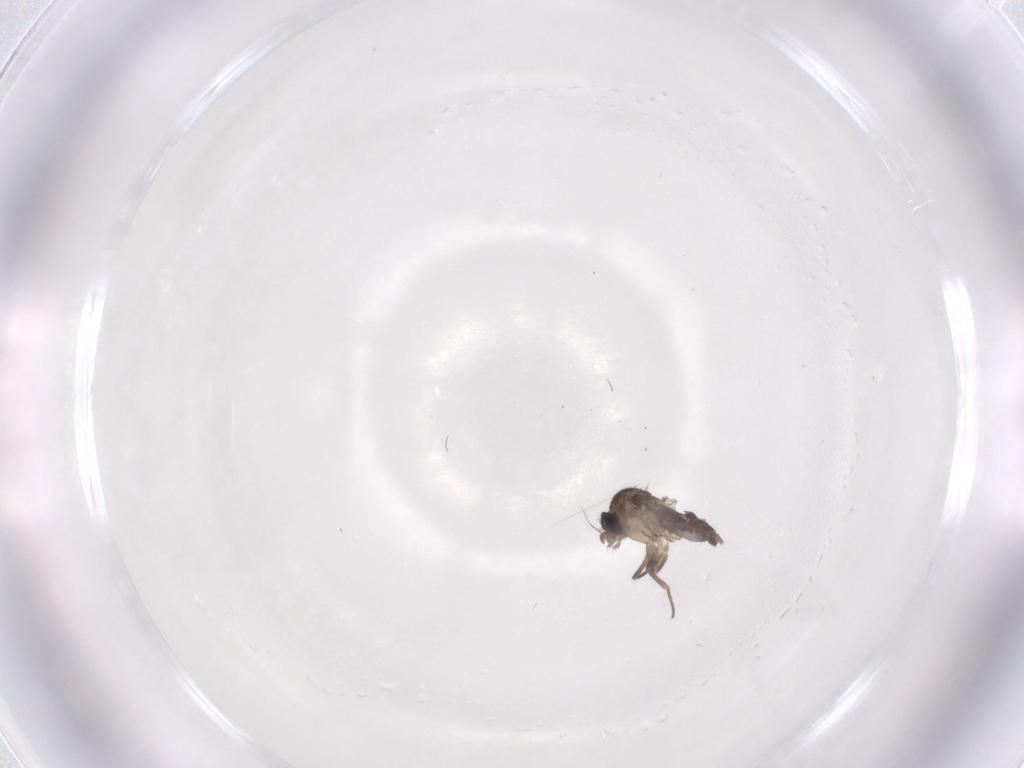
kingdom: Animalia
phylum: Arthropoda
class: Insecta
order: Diptera
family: Phoridae
